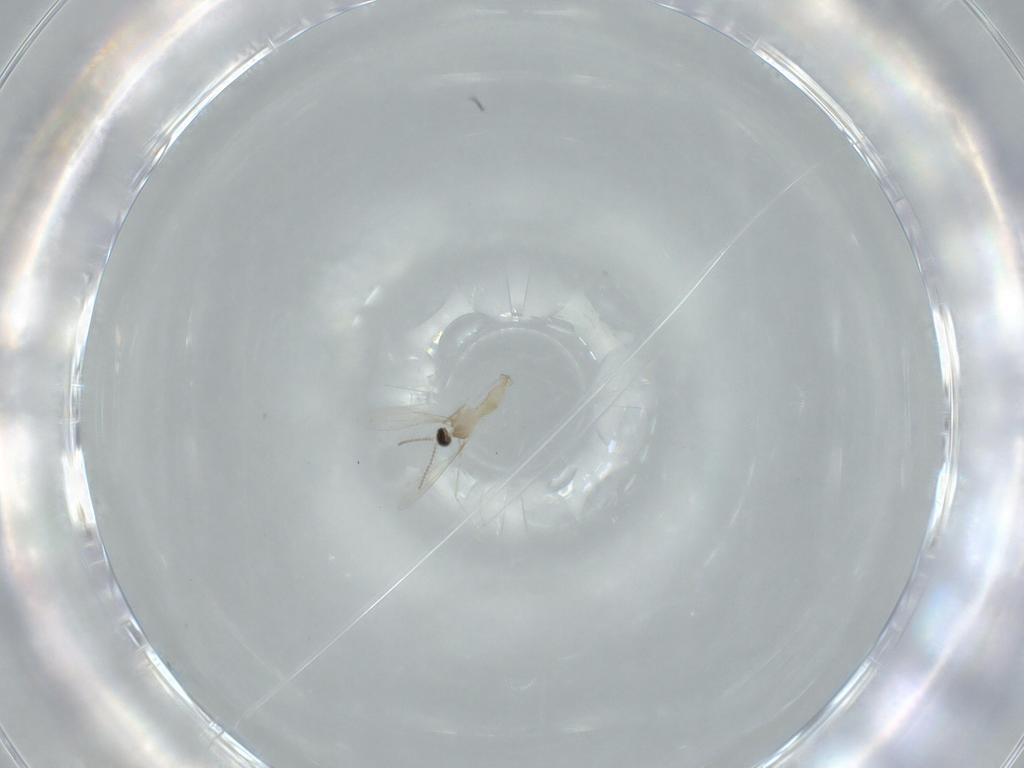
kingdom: Animalia
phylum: Arthropoda
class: Insecta
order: Diptera
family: Cecidomyiidae
